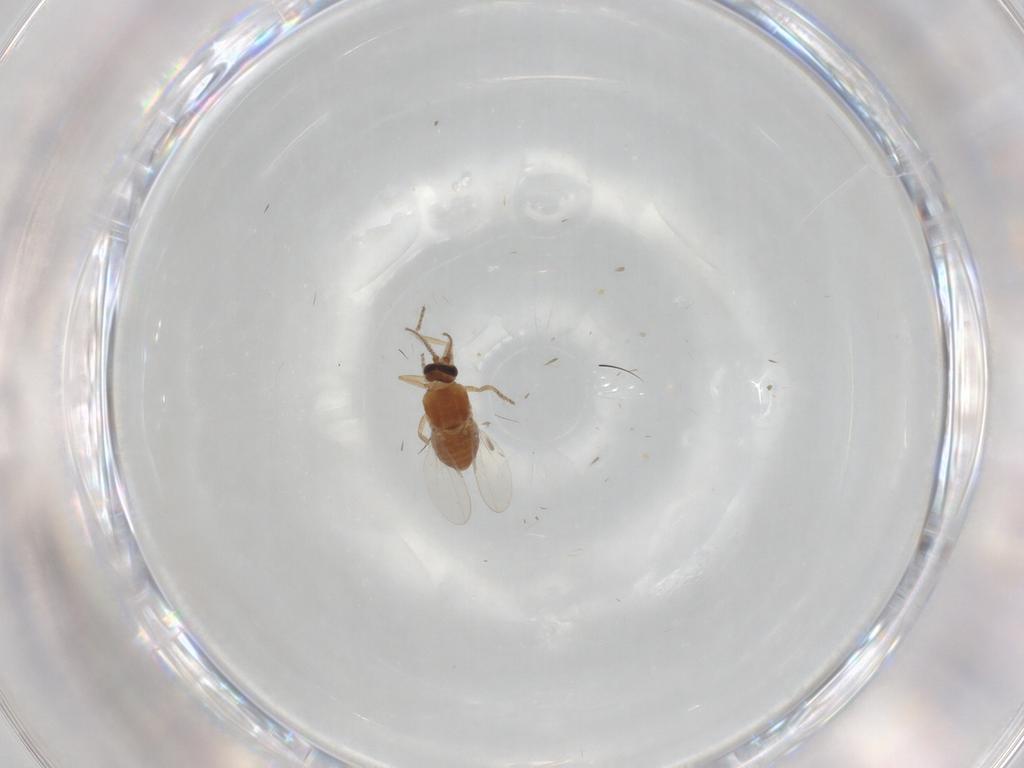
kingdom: Animalia
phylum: Arthropoda
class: Insecta
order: Diptera
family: Ceratopogonidae
